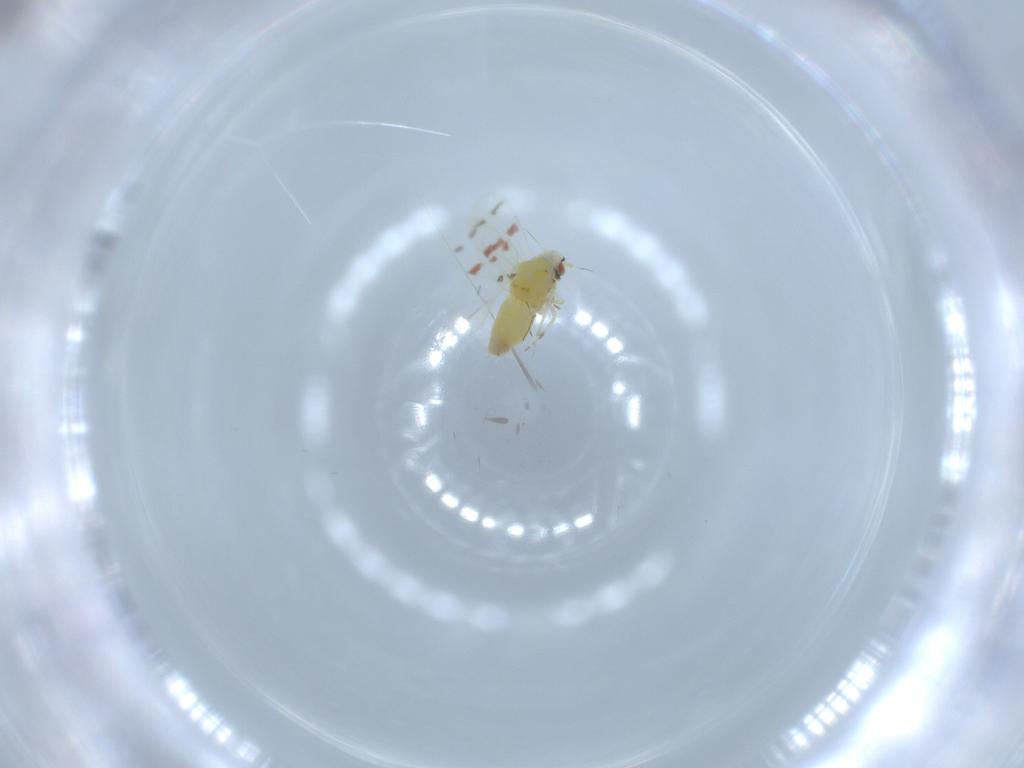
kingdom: Animalia
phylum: Arthropoda
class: Insecta
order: Hemiptera
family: Aleyrodidae
